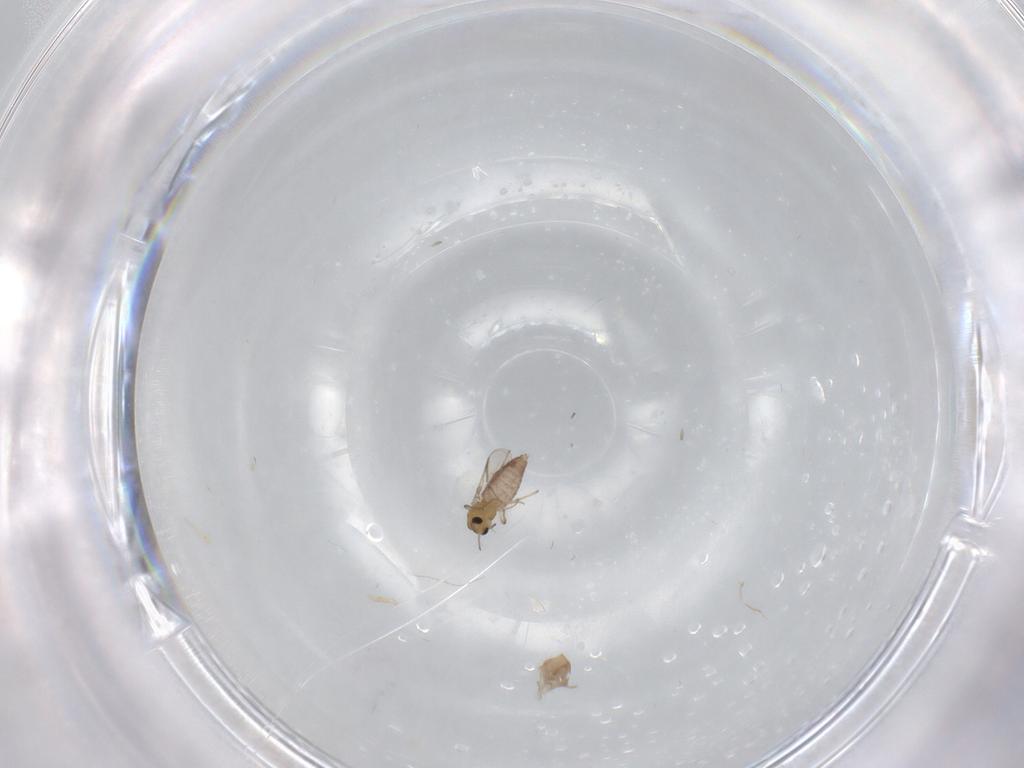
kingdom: Animalia
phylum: Arthropoda
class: Insecta
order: Diptera
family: Chironomidae
